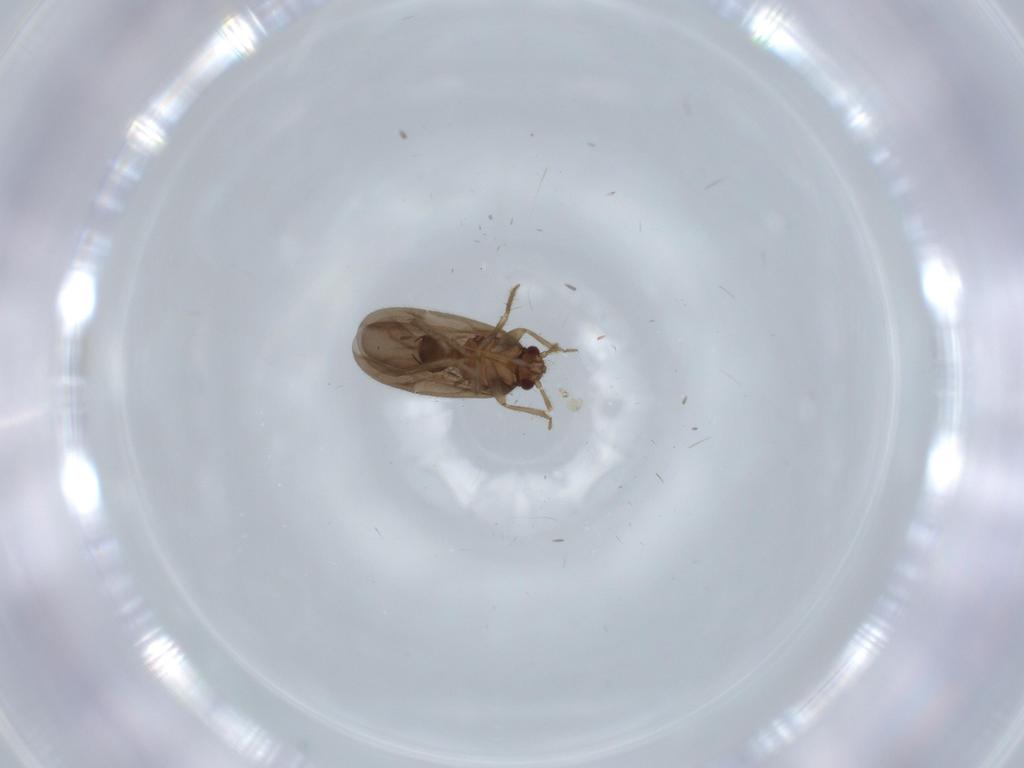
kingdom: Animalia
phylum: Arthropoda
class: Insecta
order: Hemiptera
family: Ceratocombidae
